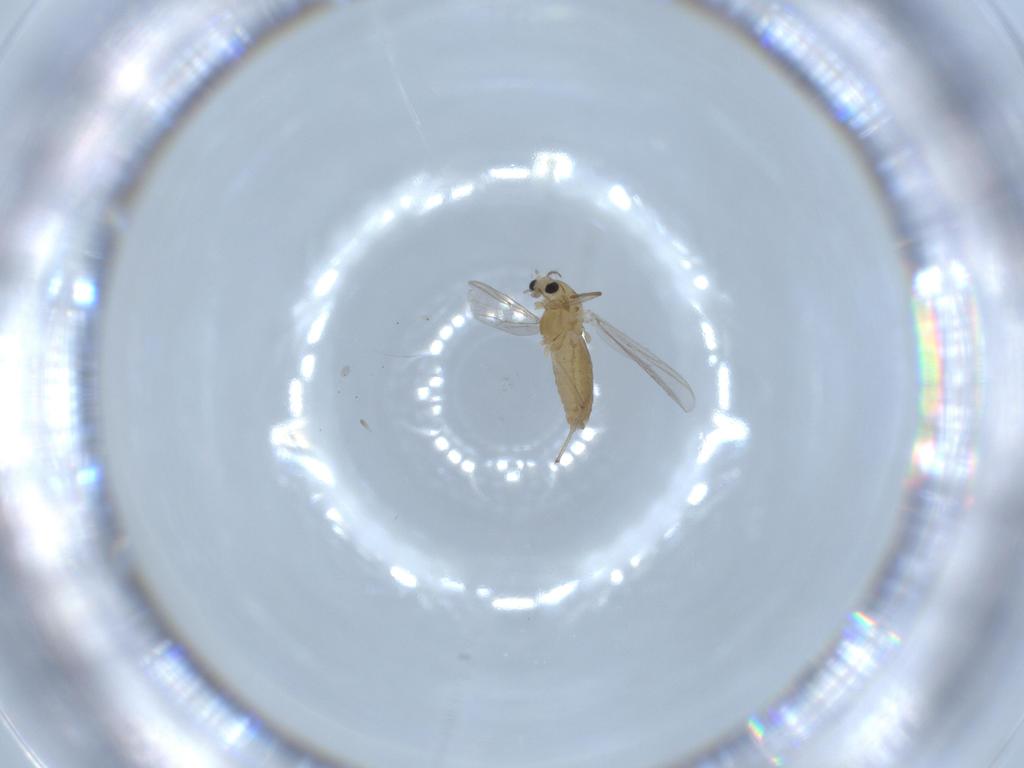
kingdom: Animalia
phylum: Arthropoda
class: Insecta
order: Diptera
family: Chironomidae
